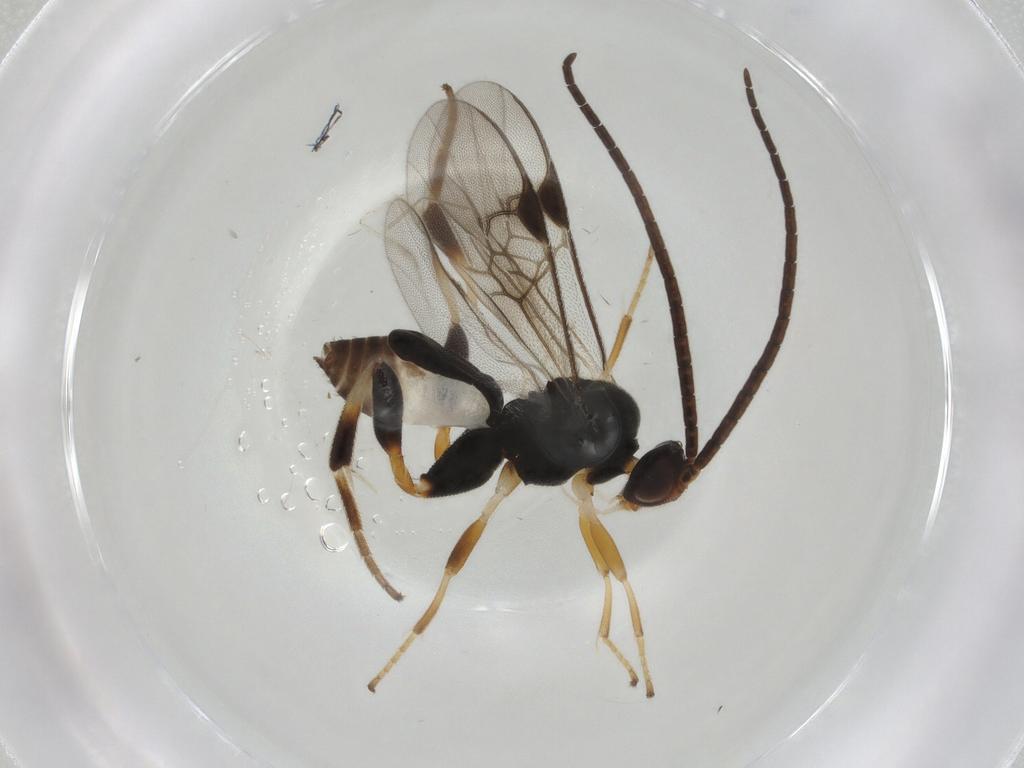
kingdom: Animalia
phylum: Arthropoda
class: Insecta
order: Hymenoptera
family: Braconidae
